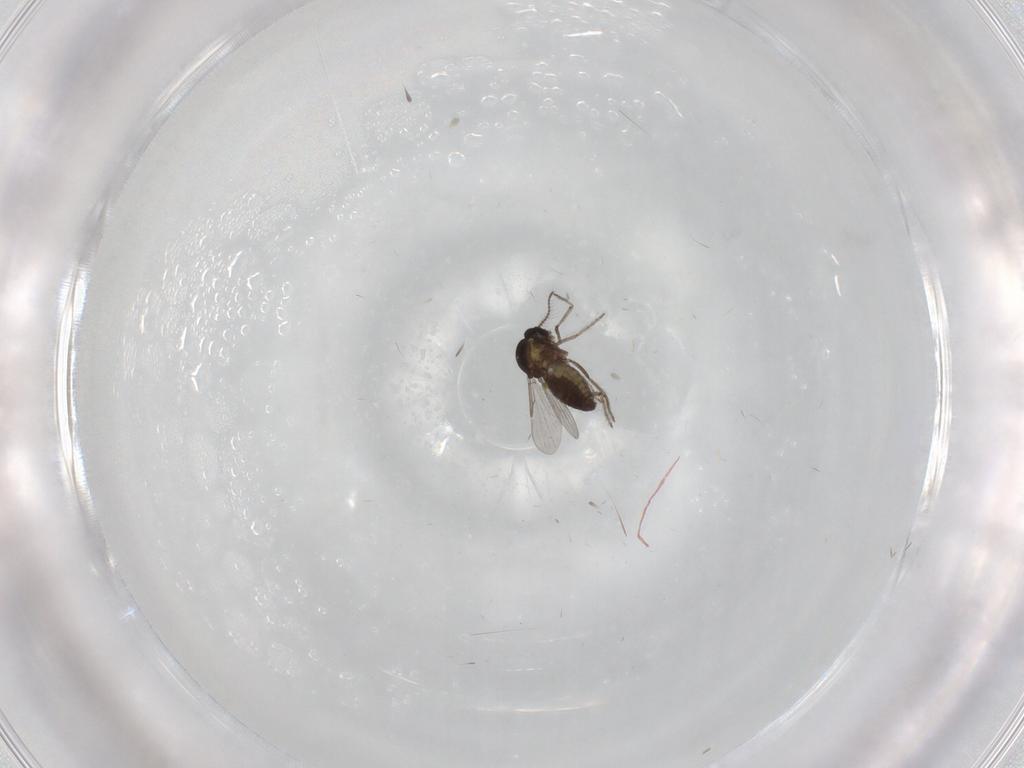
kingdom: Animalia
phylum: Arthropoda
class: Insecta
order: Diptera
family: Ceratopogonidae
